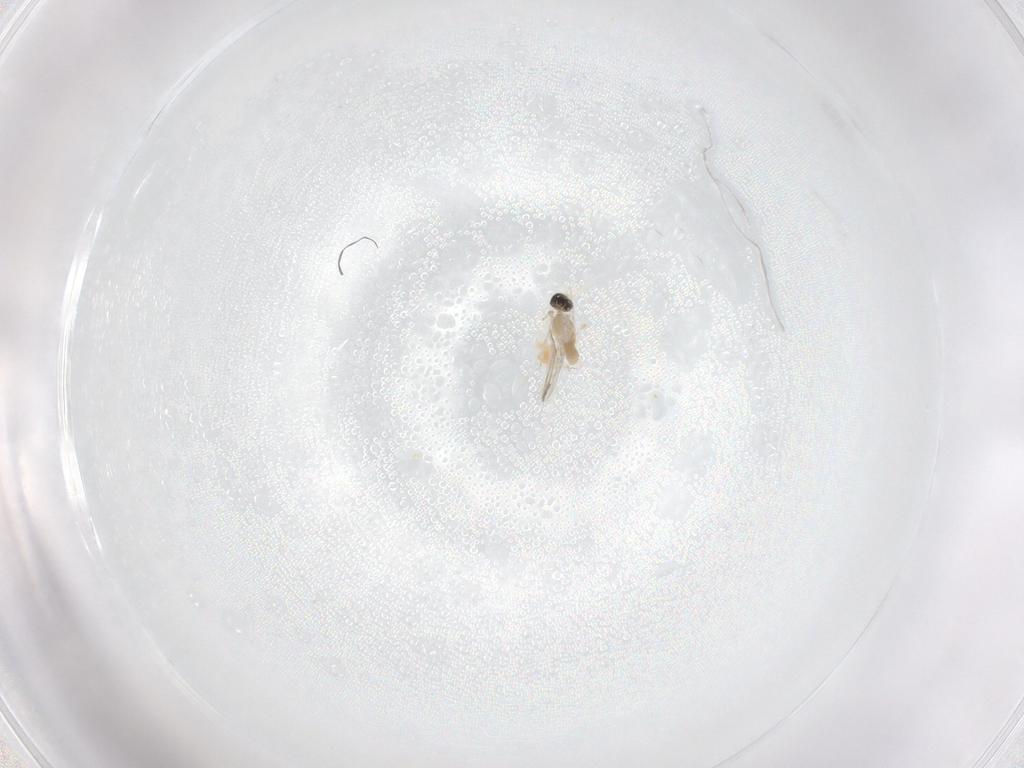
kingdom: Animalia
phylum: Arthropoda
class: Insecta
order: Diptera
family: Cecidomyiidae
